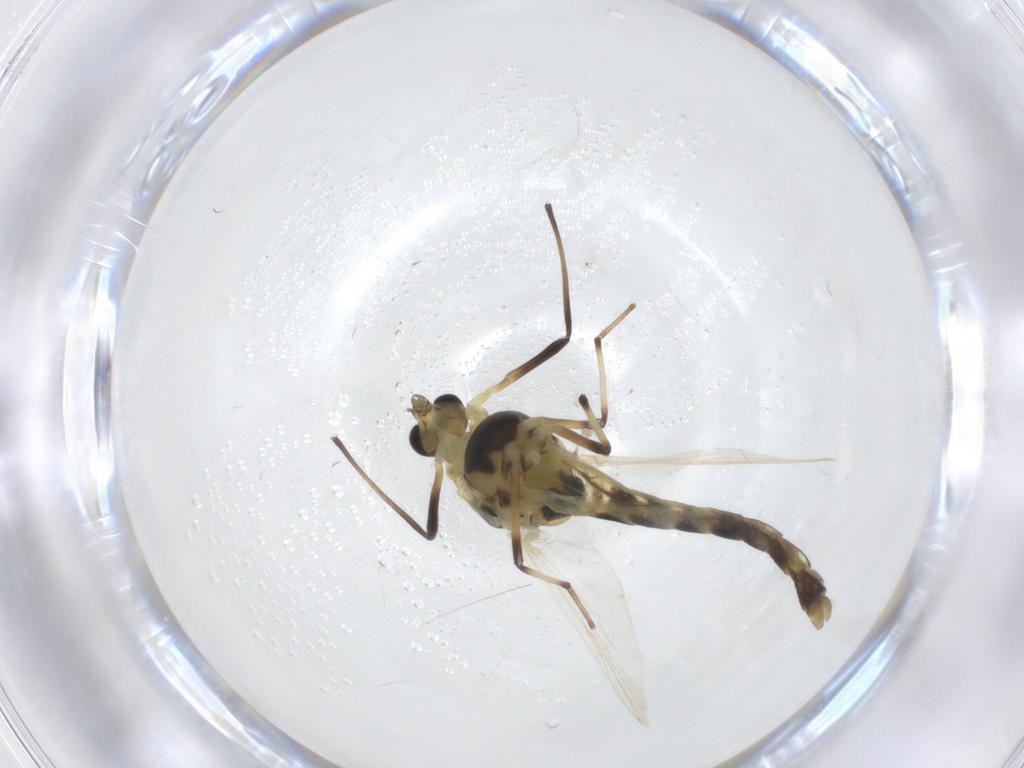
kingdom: Animalia
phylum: Arthropoda
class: Insecta
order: Diptera
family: Chironomidae
